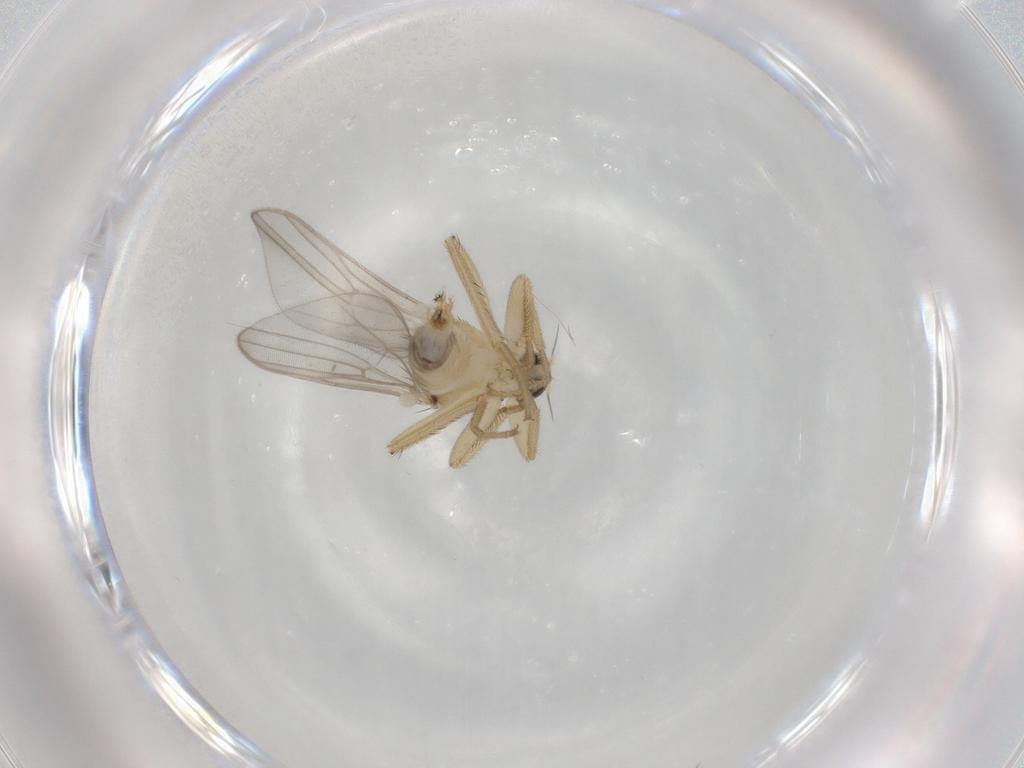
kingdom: Animalia
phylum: Arthropoda
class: Insecta
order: Diptera
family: Hybotidae
